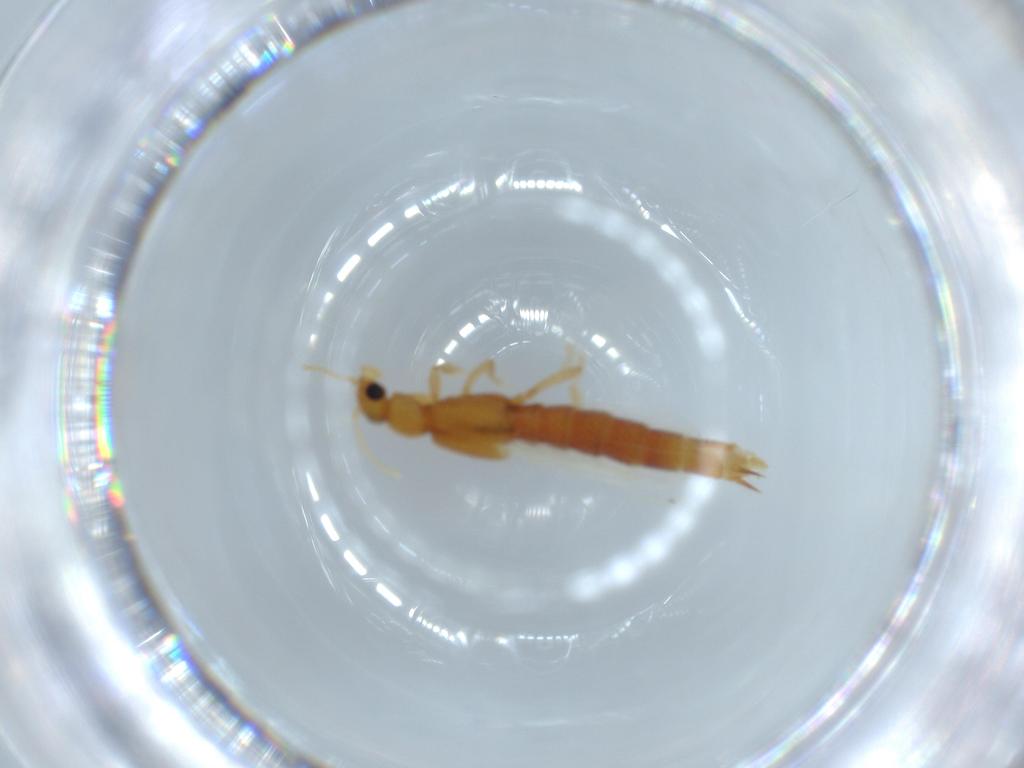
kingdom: Animalia
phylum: Arthropoda
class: Insecta
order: Coleoptera
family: Staphylinidae
